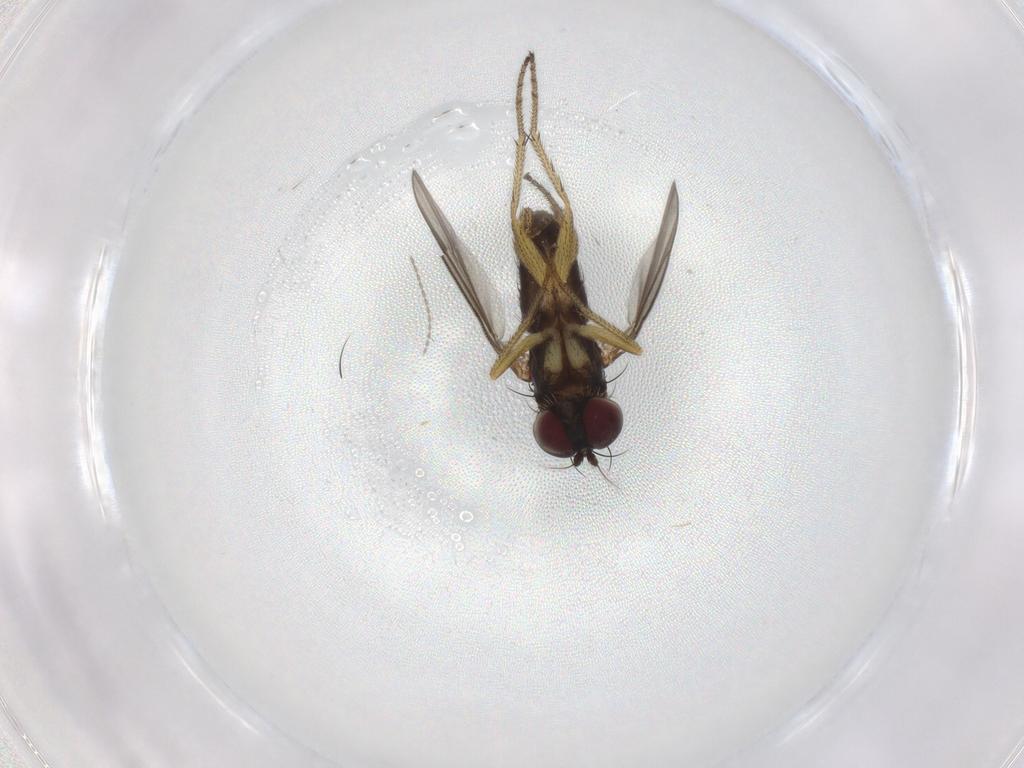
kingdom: Animalia
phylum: Arthropoda
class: Insecta
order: Diptera
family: Dolichopodidae
